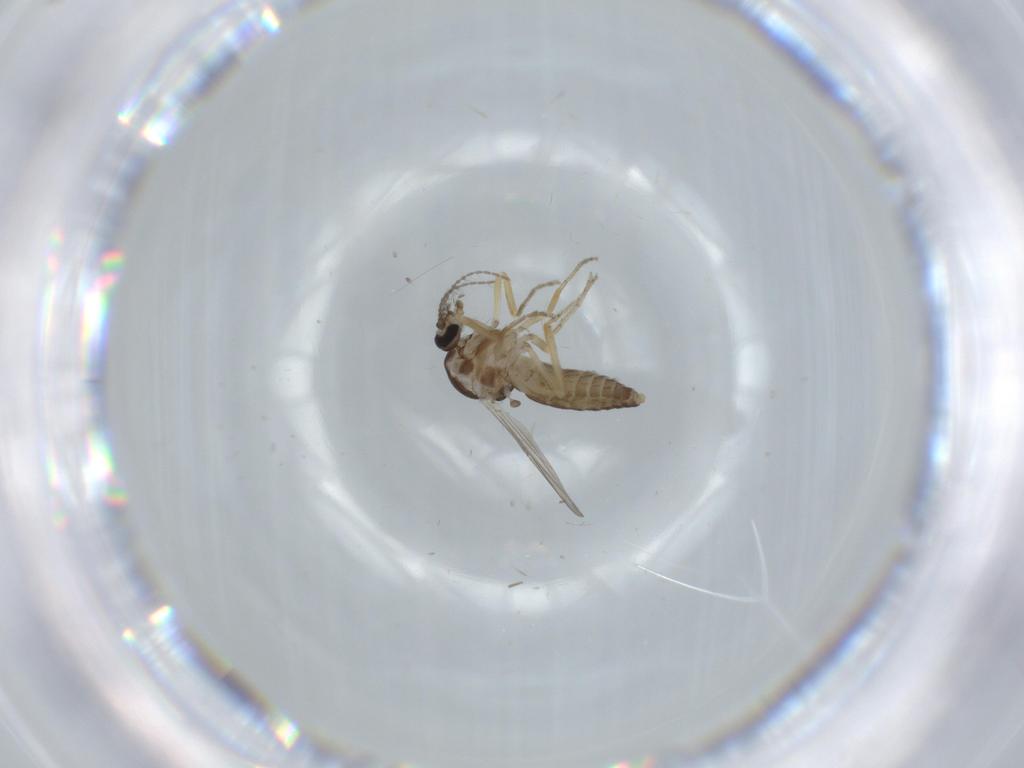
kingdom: Animalia
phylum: Arthropoda
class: Insecta
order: Diptera
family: Ceratopogonidae
